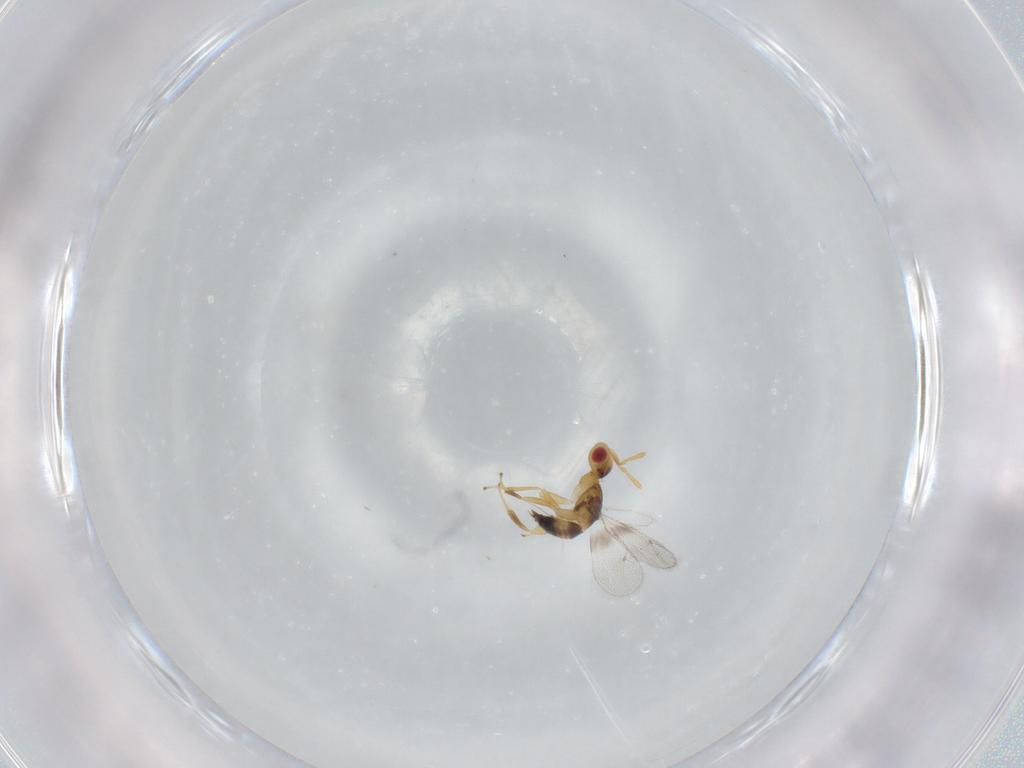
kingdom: Animalia
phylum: Arthropoda
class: Insecta
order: Hymenoptera
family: Torymidae
